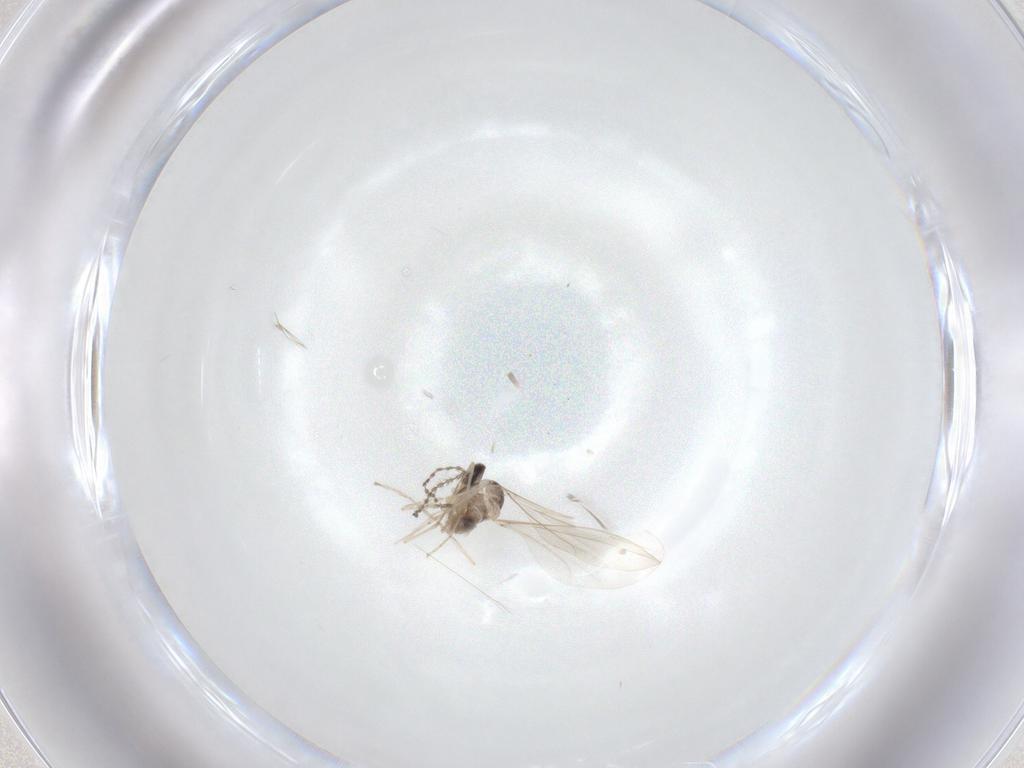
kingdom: Animalia
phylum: Arthropoda
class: Insecta
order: Diptera
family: Cecidomyiidae
